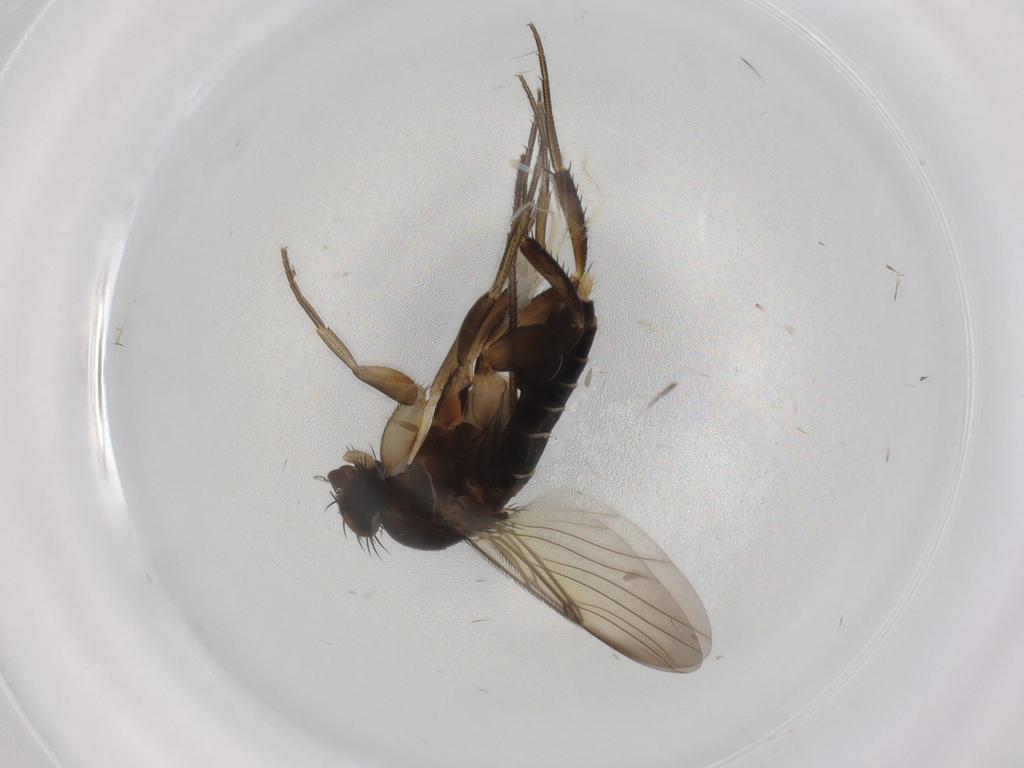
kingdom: Animalia
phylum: Arthropoda
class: Insecta
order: Diptera
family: Phoridae
